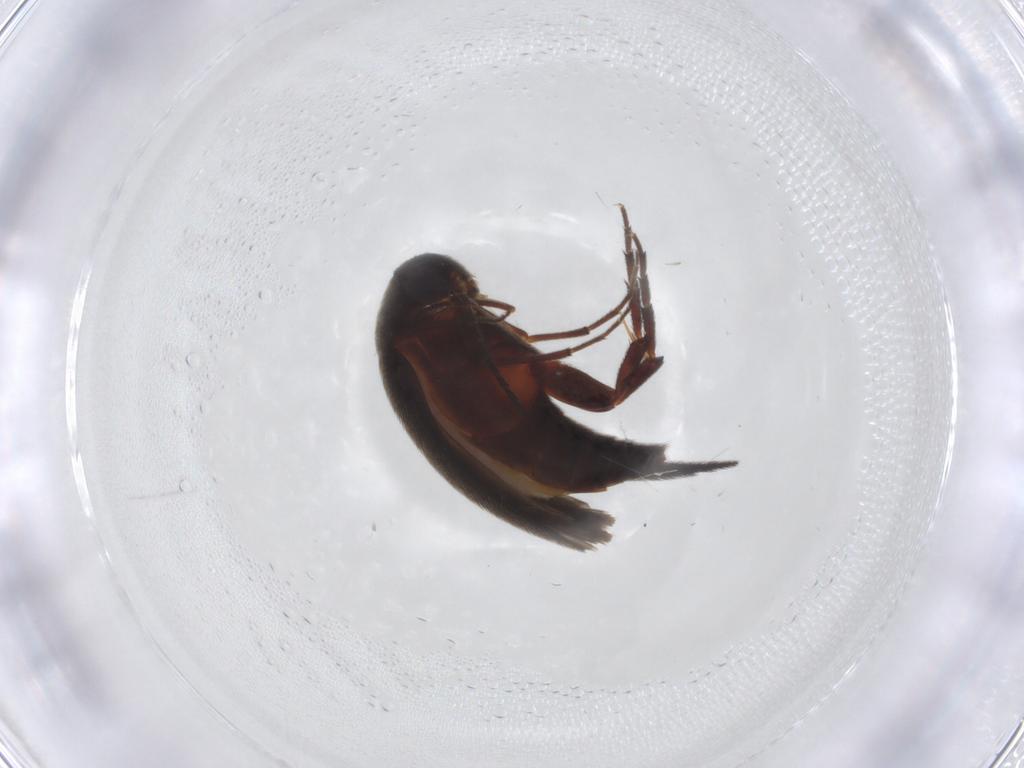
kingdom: Animalia
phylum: Arthropoda
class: Insecta
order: Coleoptera
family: Mordellidae
